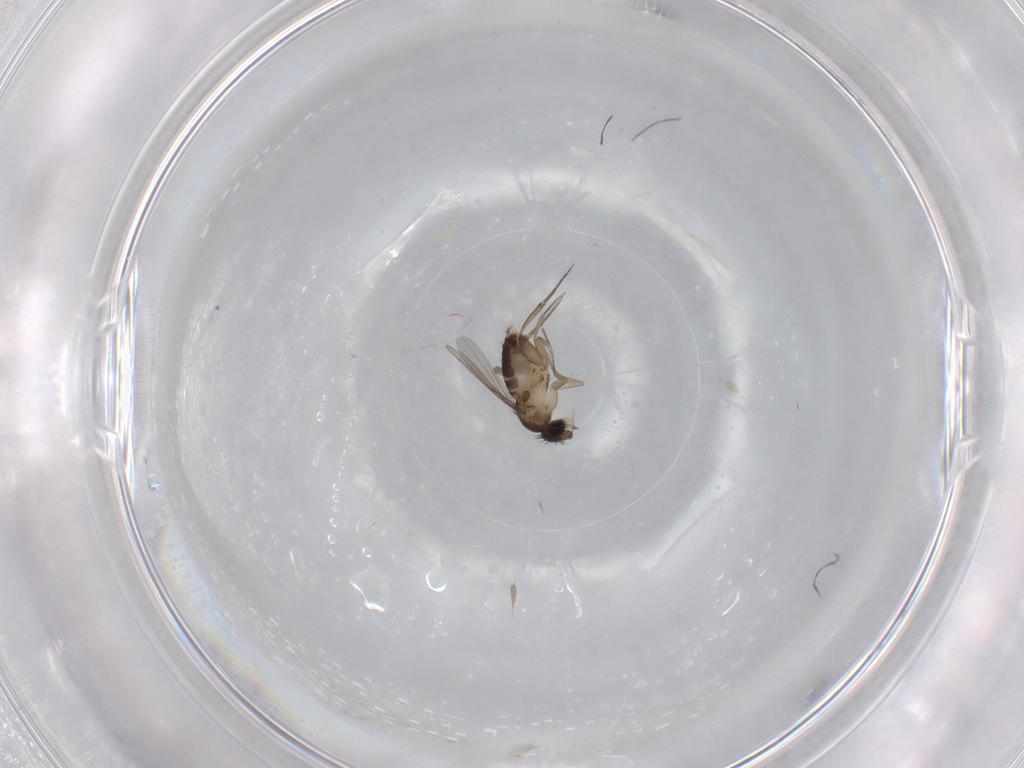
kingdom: Animalia
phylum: Arthropoda
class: Insecta
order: Diptera
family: Phoridae
